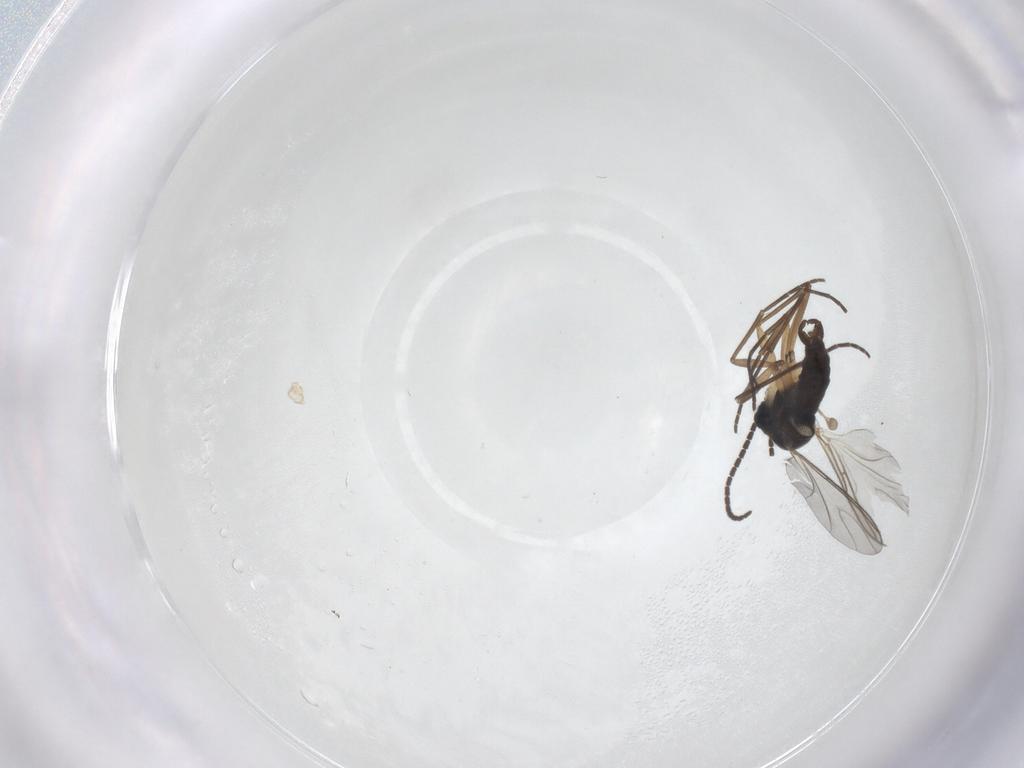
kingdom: Animalia
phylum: Arthropoda
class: Insecta
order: Diptera
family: Sciaridae
